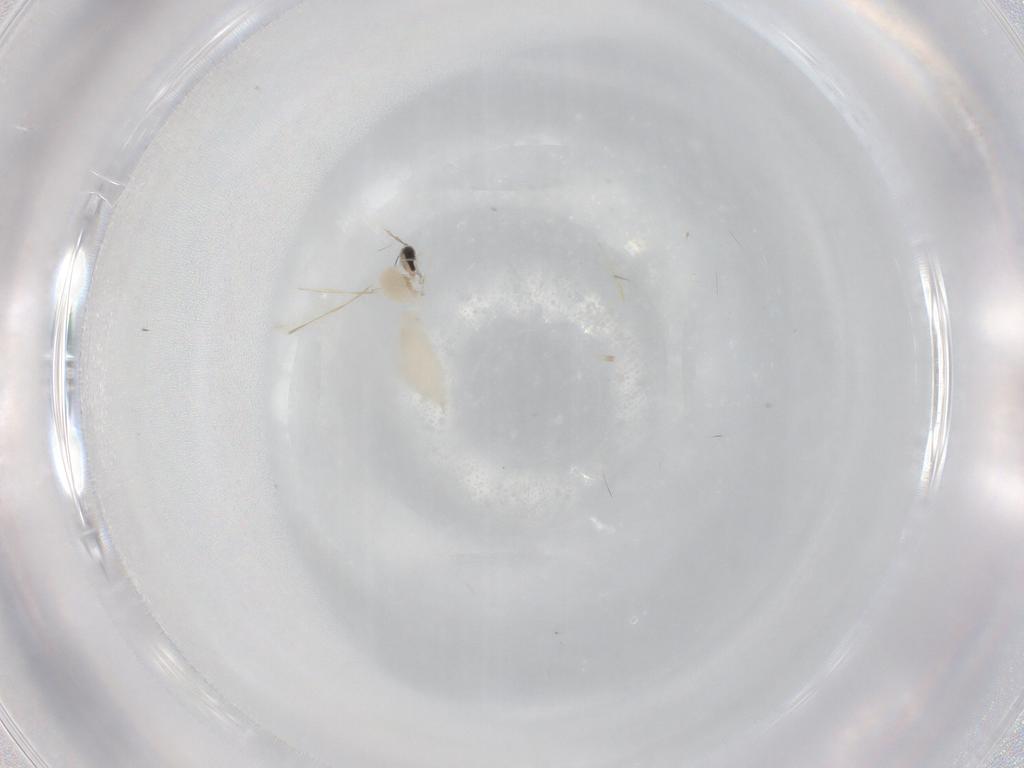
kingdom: Animalia
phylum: Arthropoda
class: Insecta
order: Diptera
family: Cecidomyiidae
